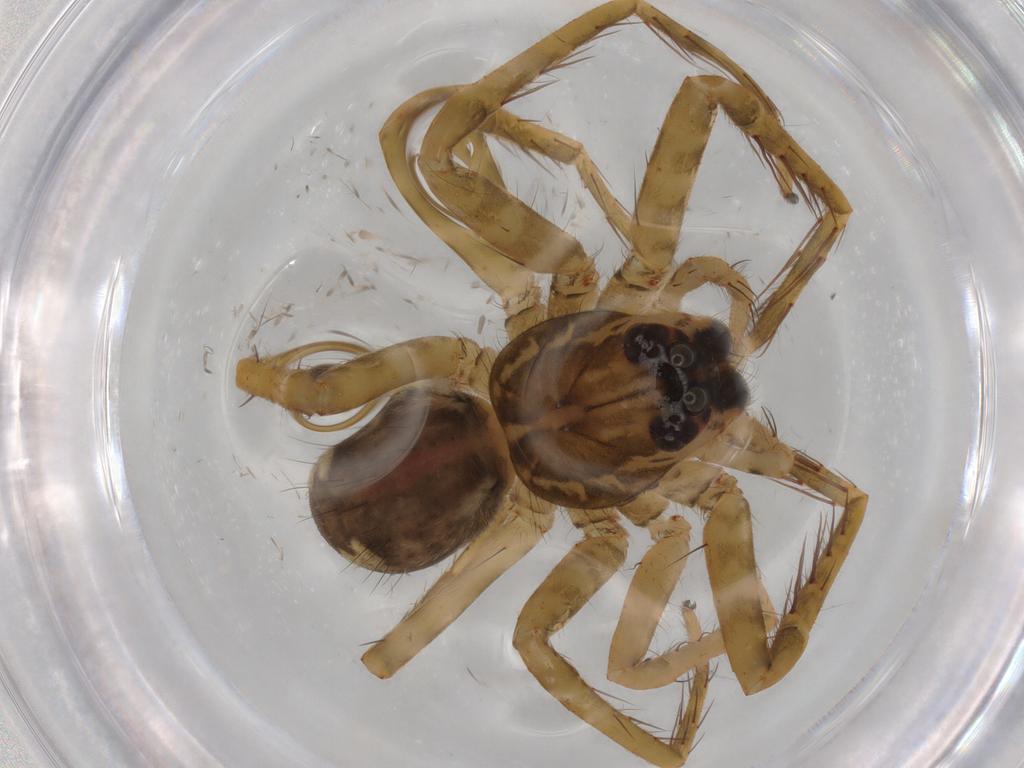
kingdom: Animalia
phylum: Arthropoda
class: Arachnida
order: Araneae
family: Ctenidae
